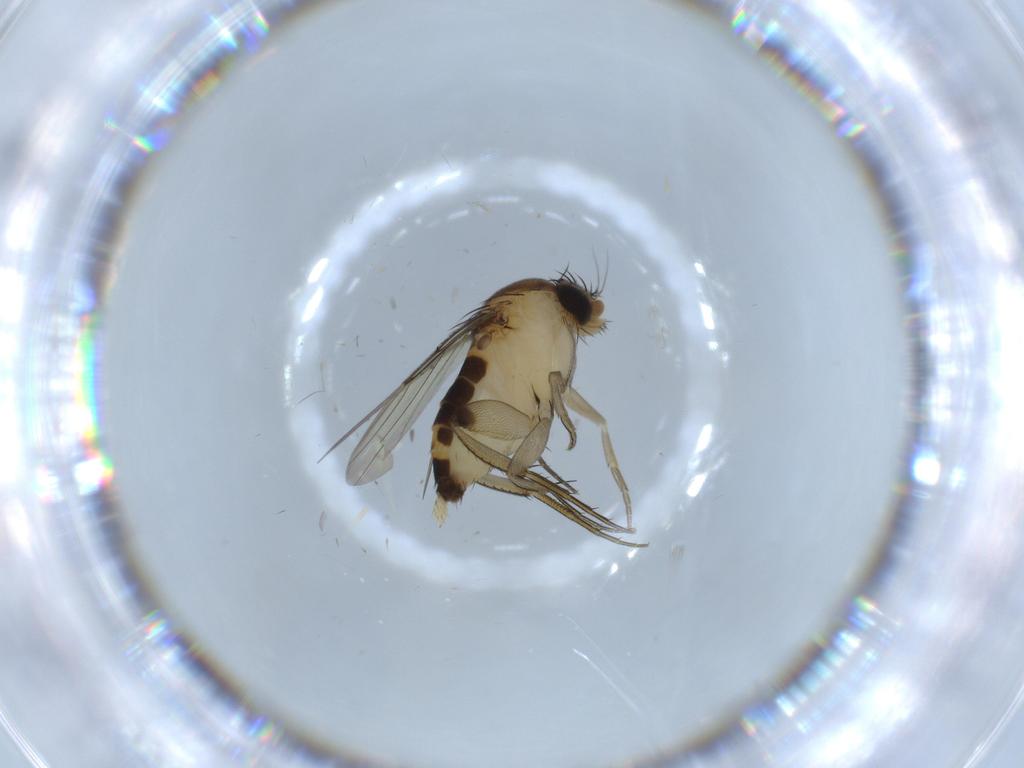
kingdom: Animalia
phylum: Arthropoda
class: Insecta
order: Diptera
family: Phoridae
